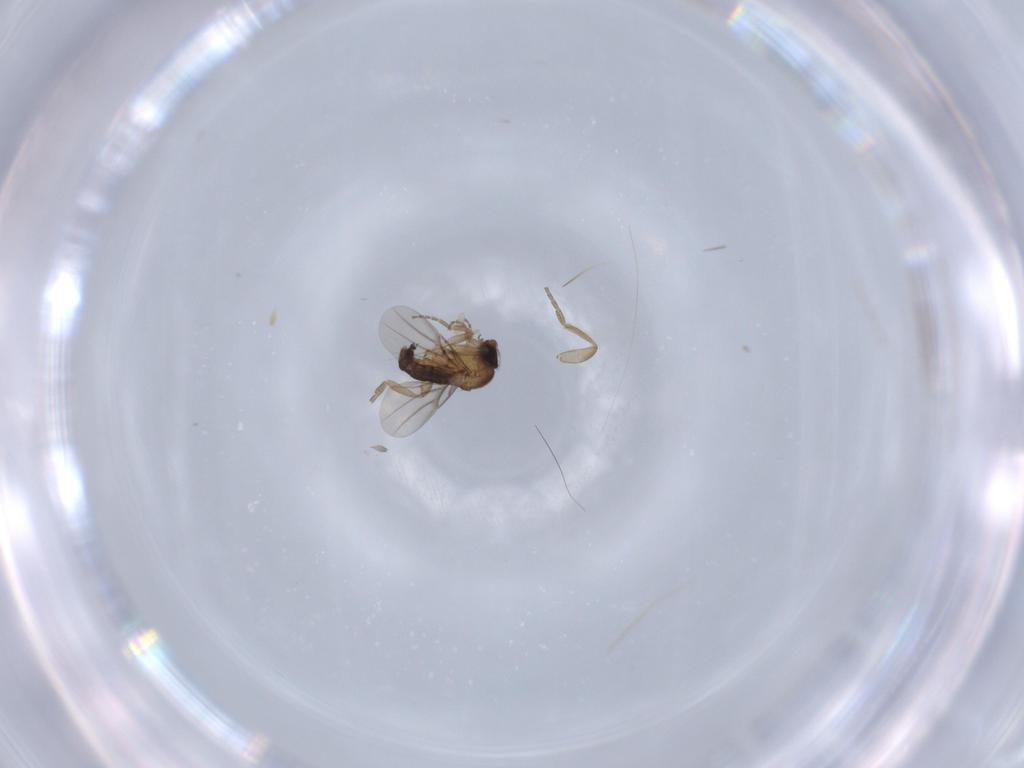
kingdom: Animalia
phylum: Arthropoda
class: Insecta
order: Diptera
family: Phoridae
